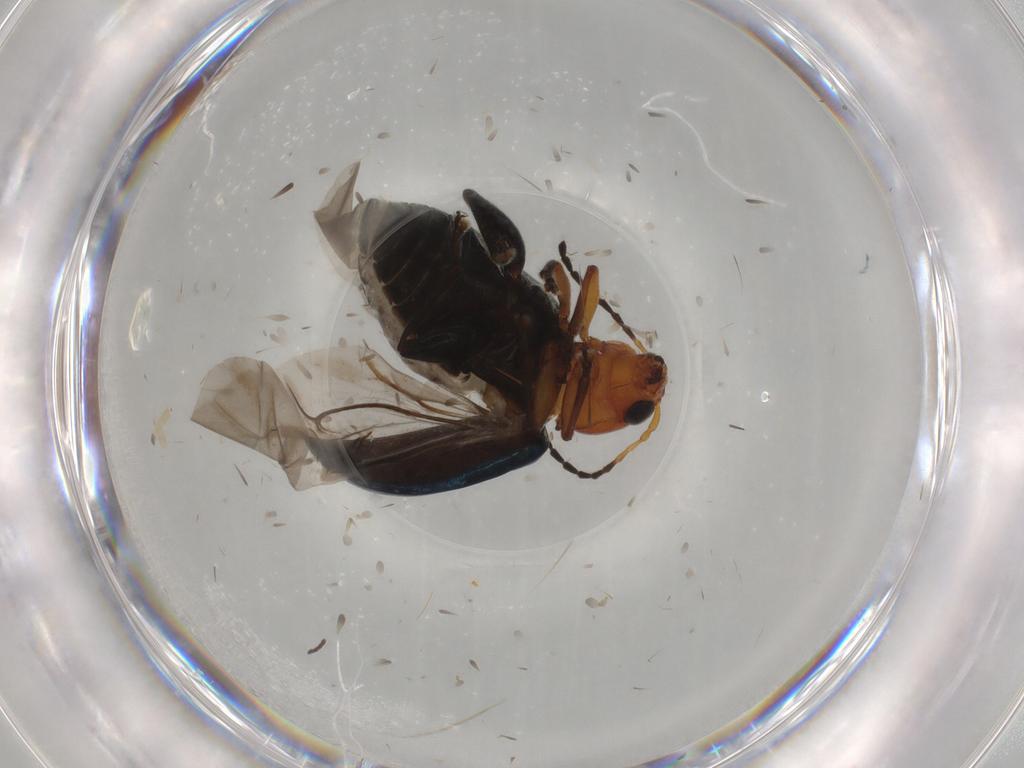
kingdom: Animalia
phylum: Arthropoda
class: Insecta
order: Coleoptera
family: Chrysomelidae
